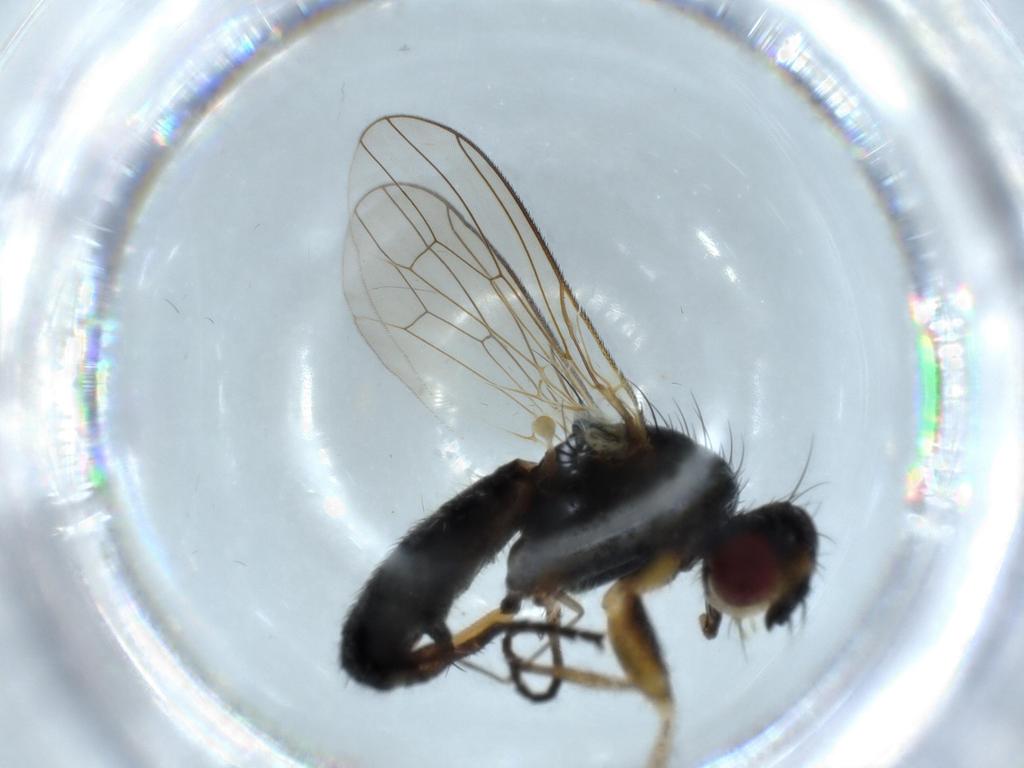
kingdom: Animalia
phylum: Arthropoda
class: Insecta
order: Diptera
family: Scathophagidae
